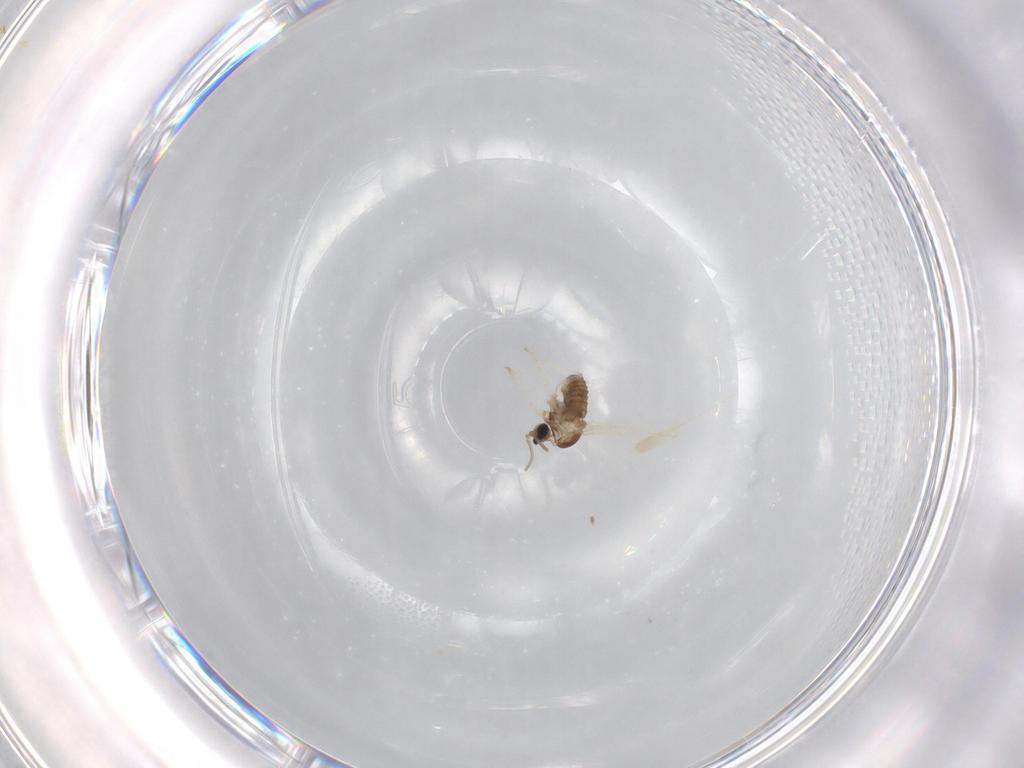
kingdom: Animalia
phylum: Arthropoda
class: Insecta
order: Diptera
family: Cecidomyiidae
